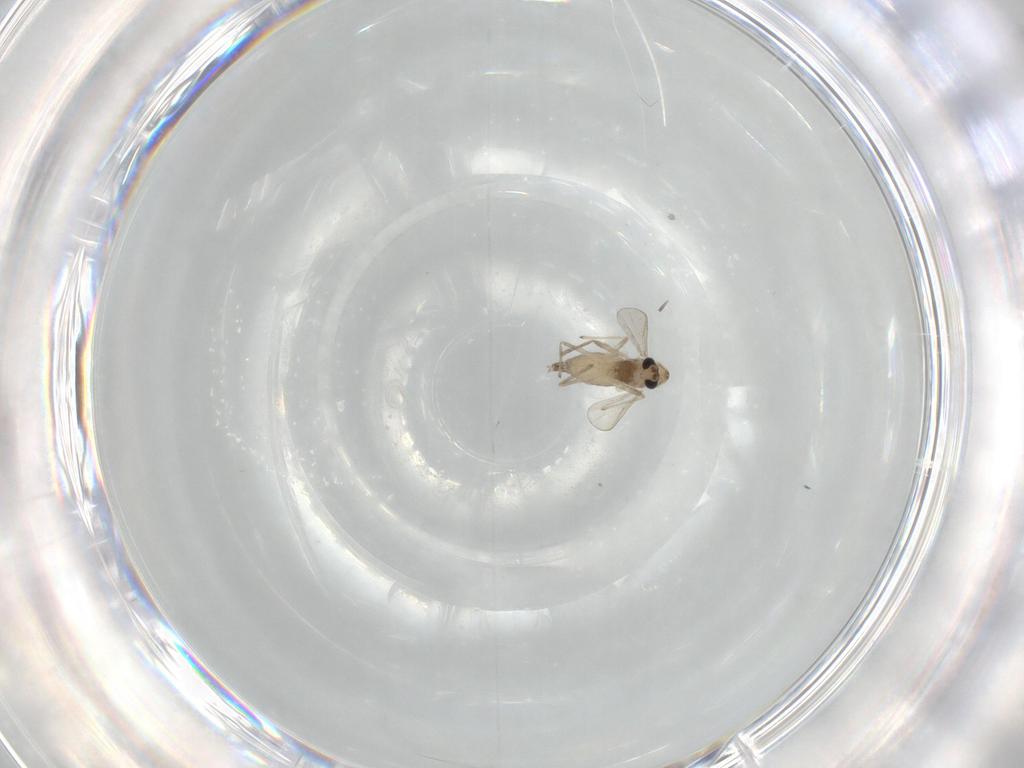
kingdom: Animalia
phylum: Arthropoda
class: Insecta
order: Diptera
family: Chironomidae
